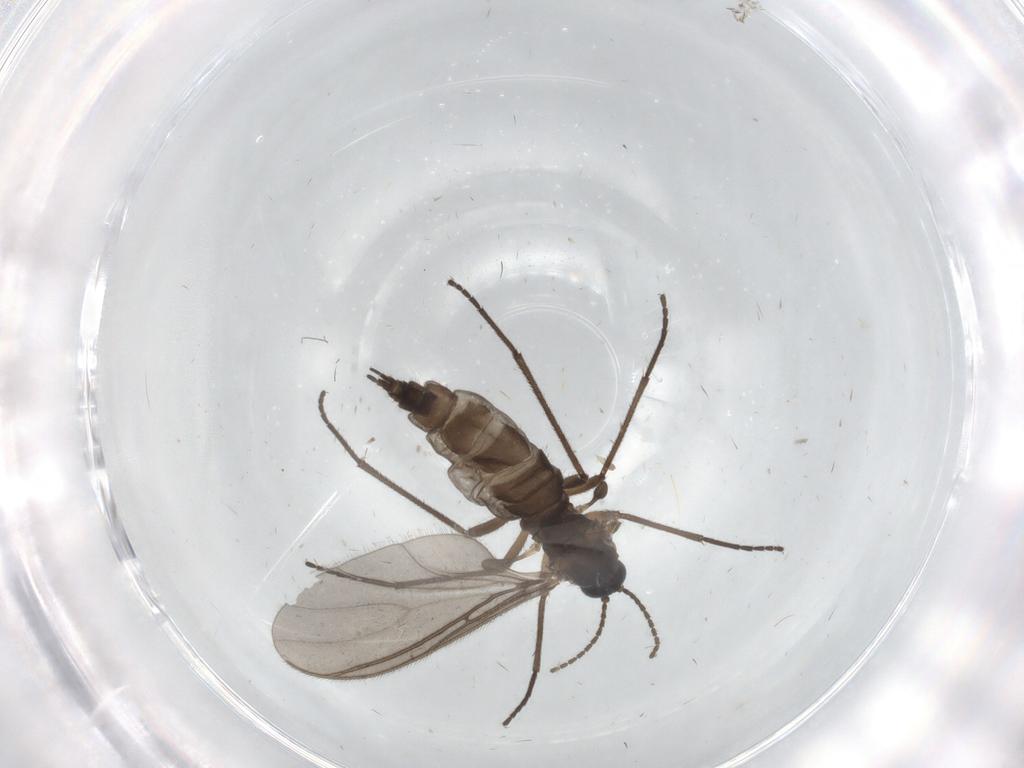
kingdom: Animalia
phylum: Arthropoda
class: Insecta
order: Diptera
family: Sciaridae
